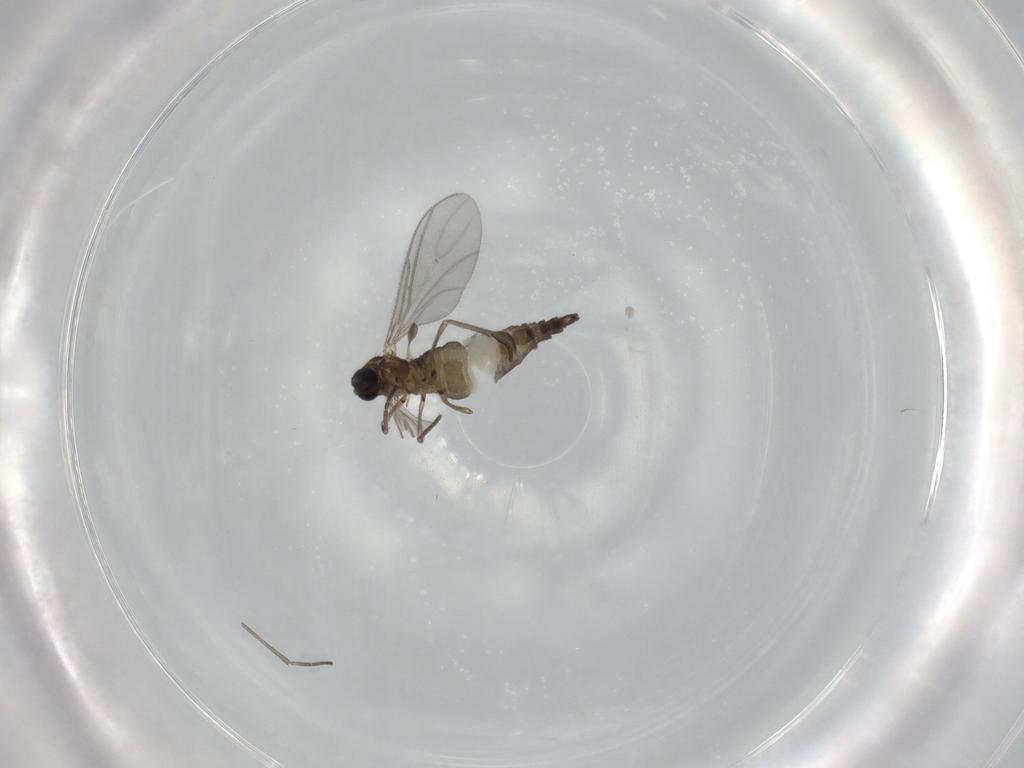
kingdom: Animalia
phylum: Arthropoda
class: Insecta
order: Diptera
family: Sciaridae
